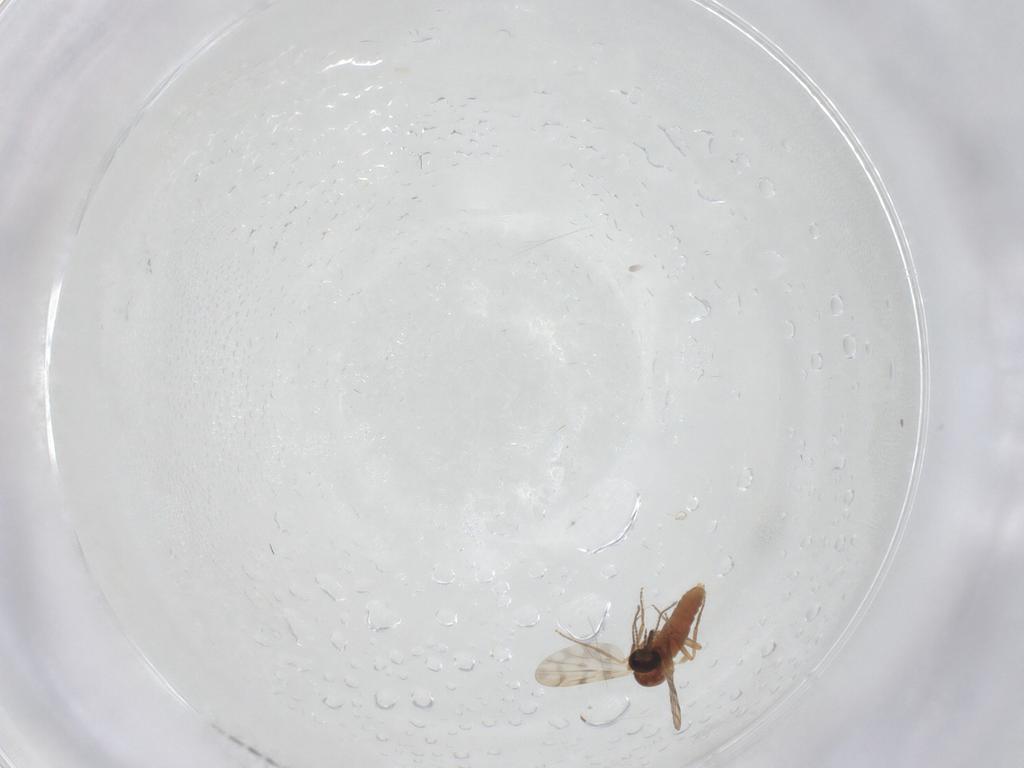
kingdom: Animalia
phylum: Arthropoda
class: Insecta
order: Diptera
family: Ceratopogonidae
